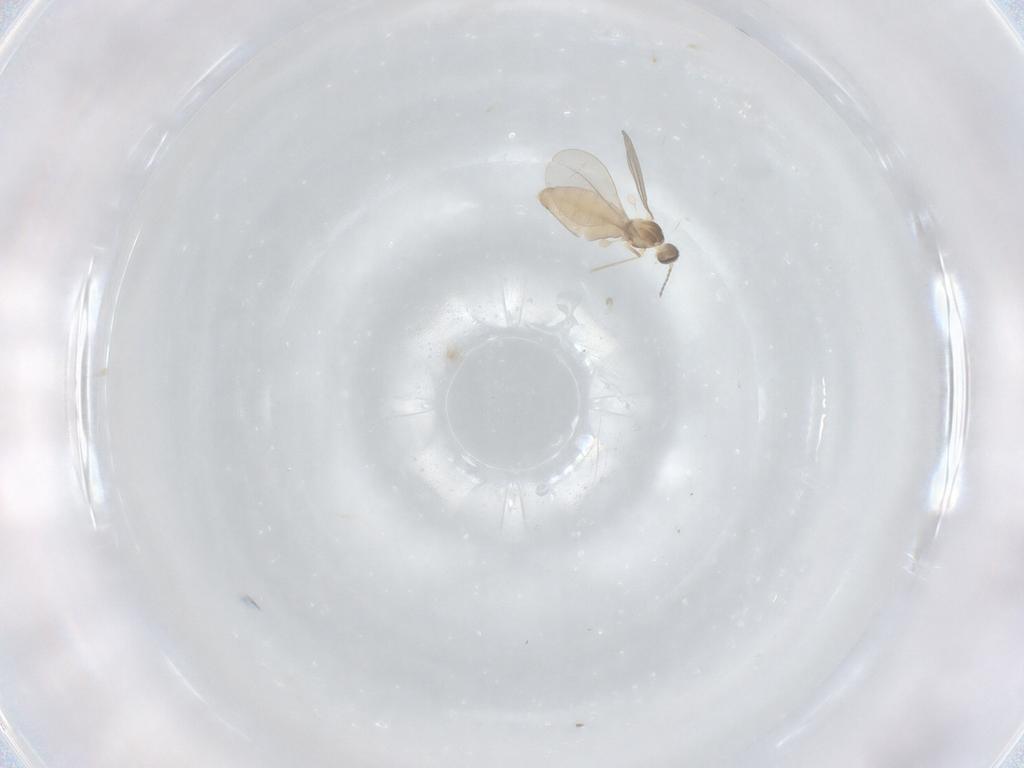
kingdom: Animalia
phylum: Arthropoda
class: Insecta
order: Diptera
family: Cecidomyiidae
